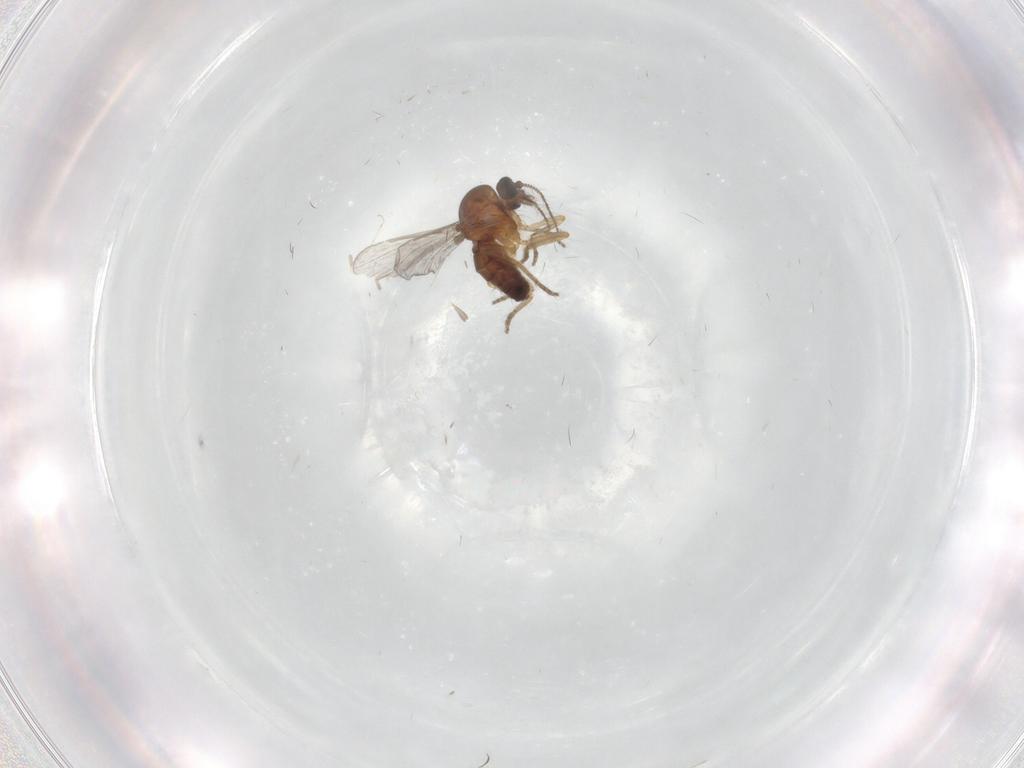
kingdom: Animalia
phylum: Arthropoda
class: Insecta
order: Diptera
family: Ceratopogonidae
